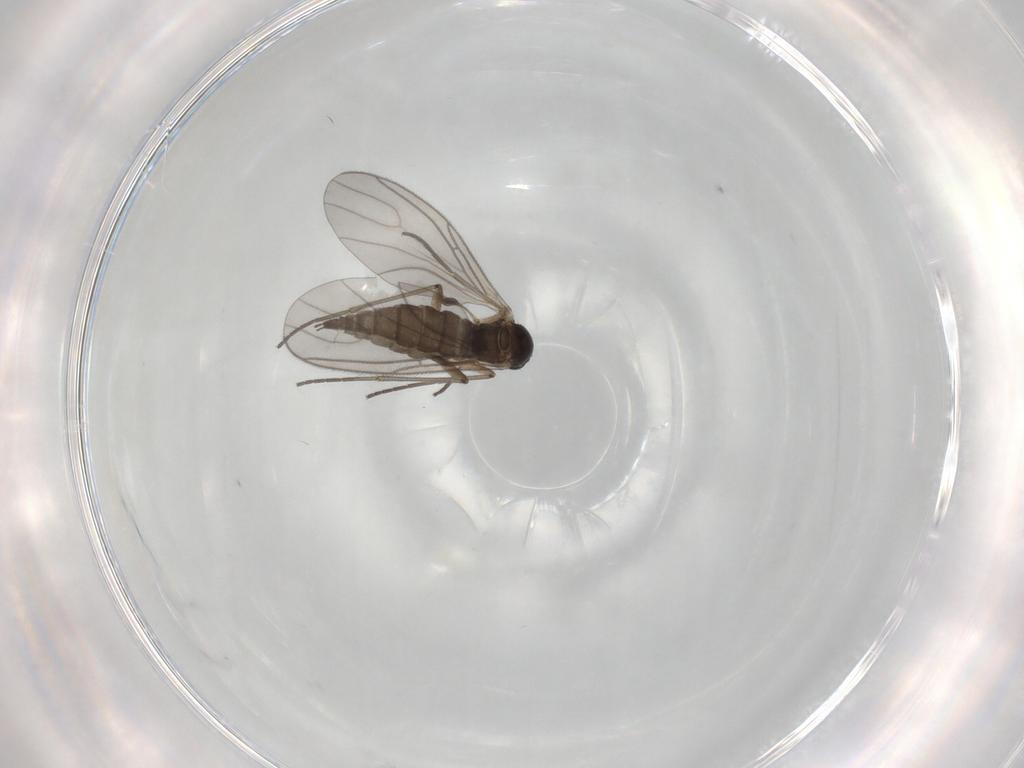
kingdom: Animalia
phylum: Arthropoda
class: Insecta
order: Diptera
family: Sciaridae
